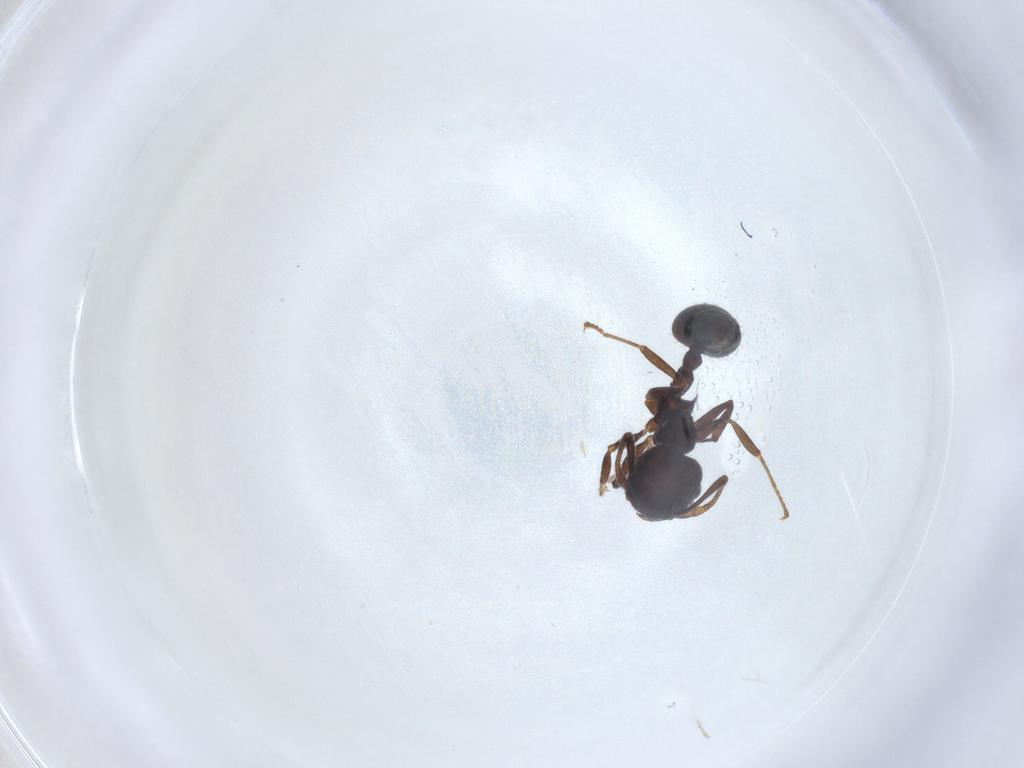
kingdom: Animalia
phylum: Arthropoda
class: Insecta
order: Hymenoptera
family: Formicidae
